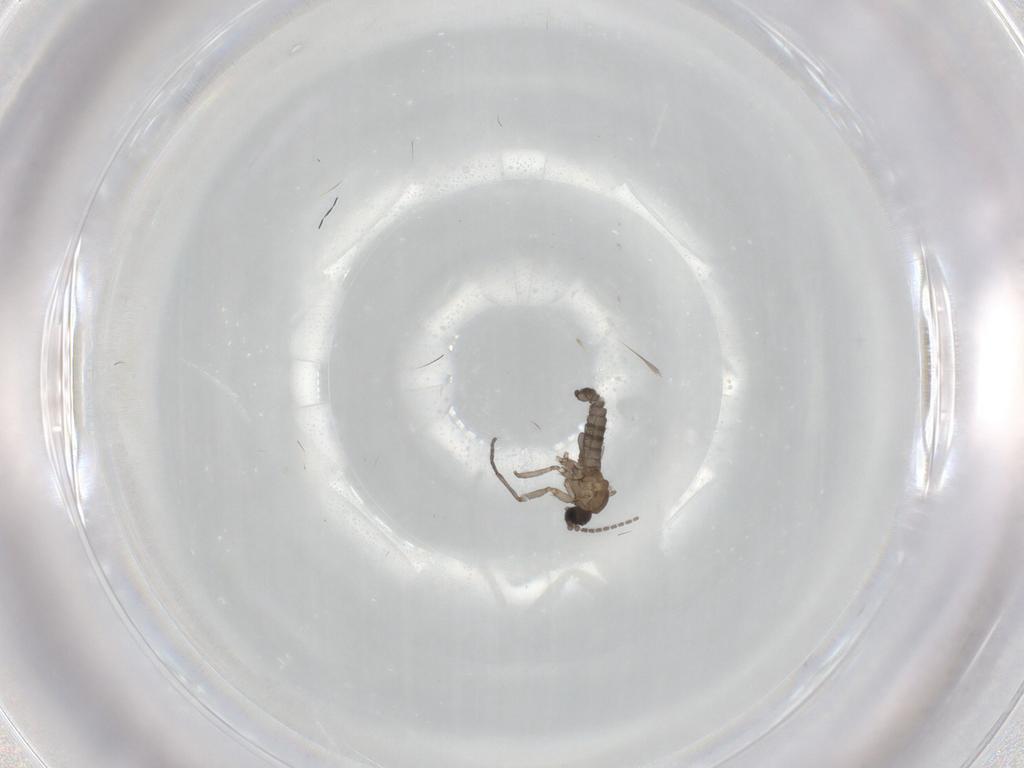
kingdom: Animalia
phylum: Arthropoda
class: Insecta
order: Diptera
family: Sciaridae
